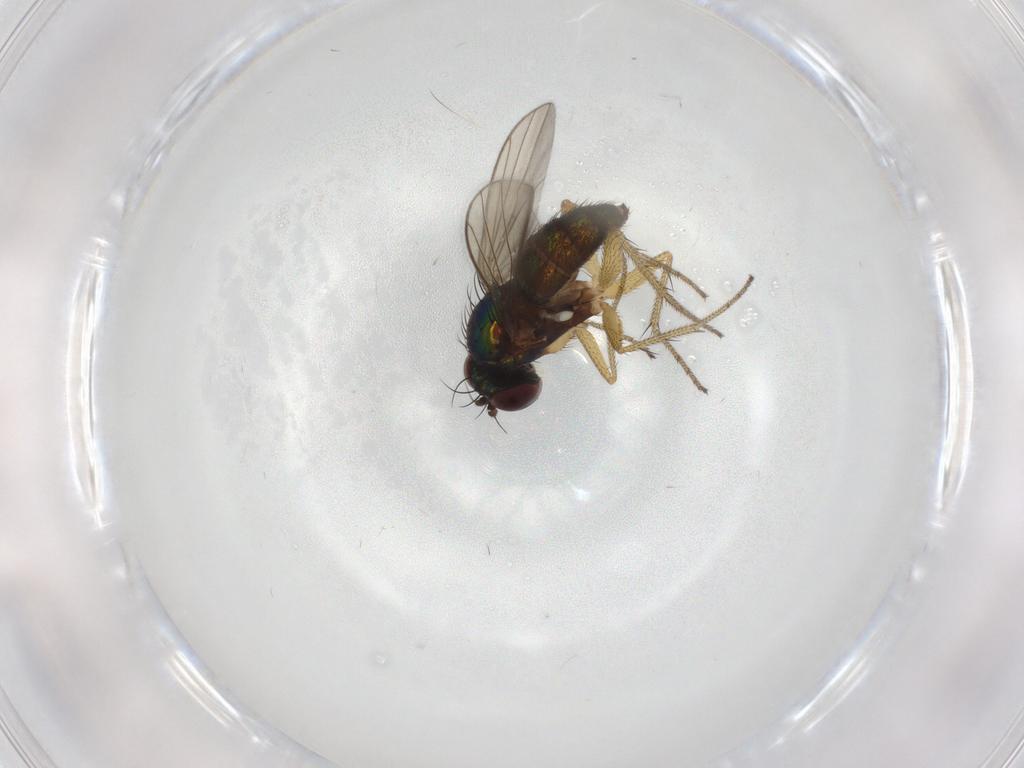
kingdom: Animalia
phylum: Arthropoda
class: Insecta
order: Diptera
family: Dolichopodidae
